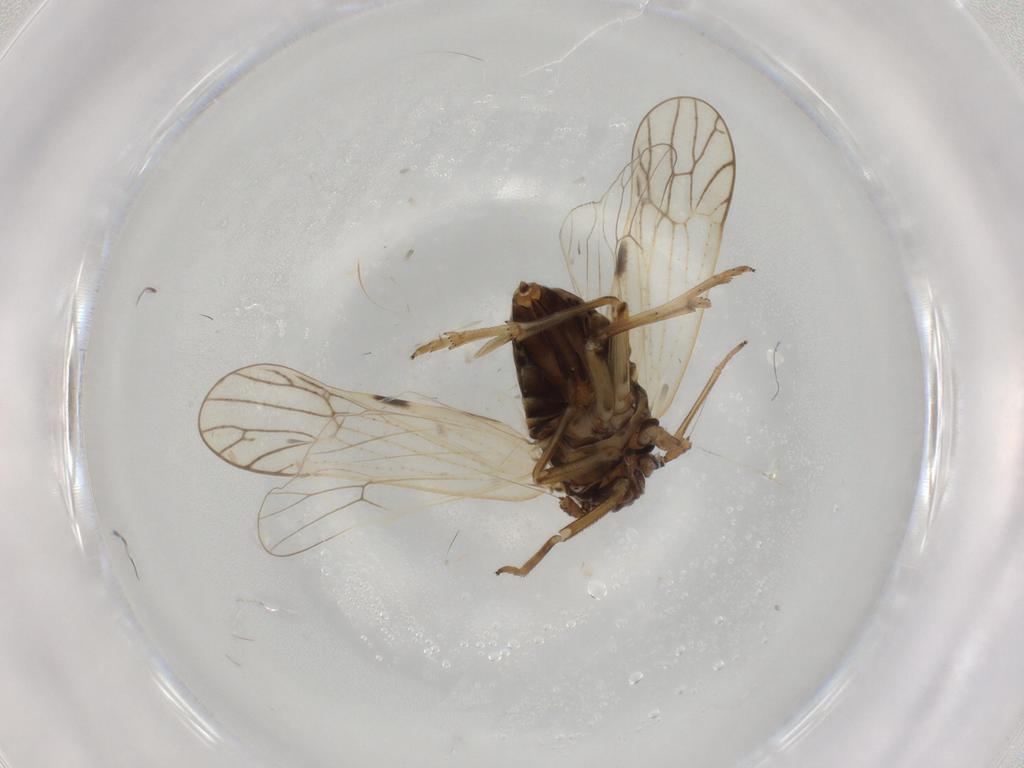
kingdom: Animalia
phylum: Arthropoda
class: Insecta
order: Hemiptera
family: Delphacidae
